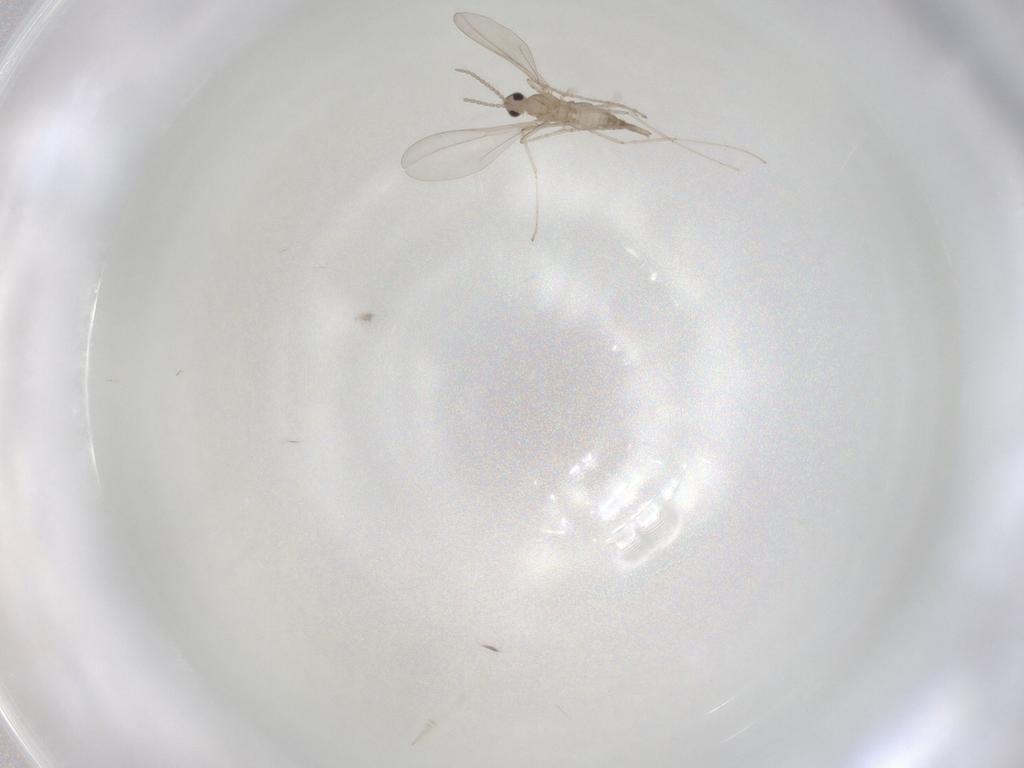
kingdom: Animalia
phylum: Arthropoda
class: Insecta
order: Diptera
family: Cecidomyiidae
